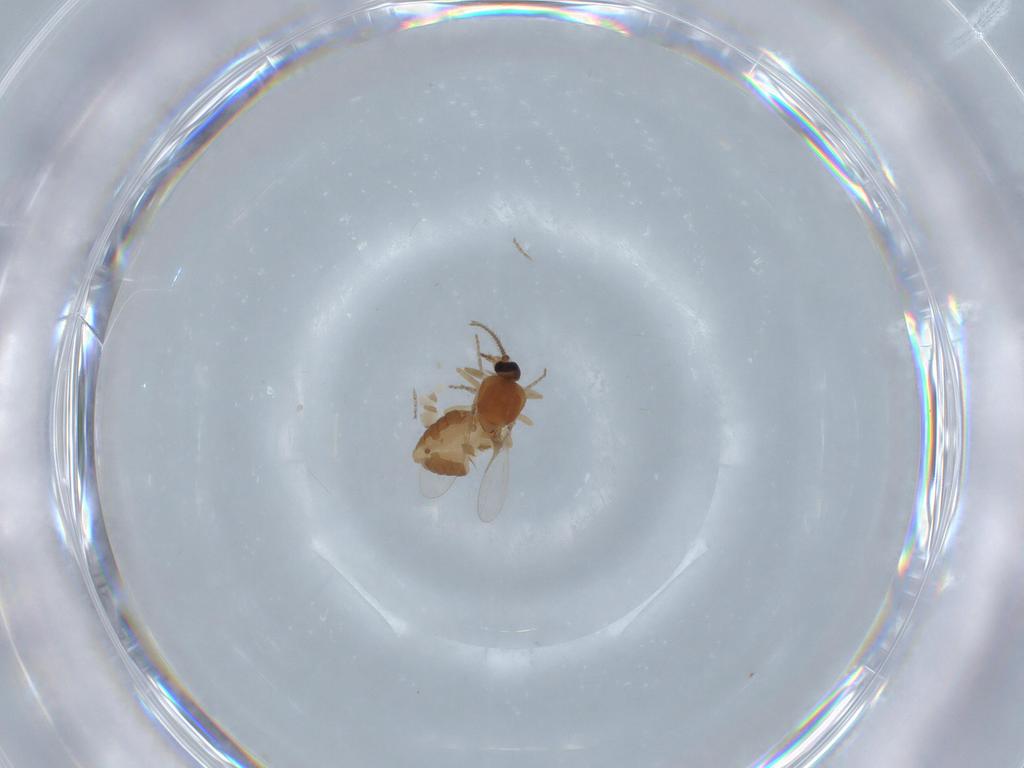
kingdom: Animalia
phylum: Arthropoda
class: Insecta
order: Diptera
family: Ceratopogonidae
